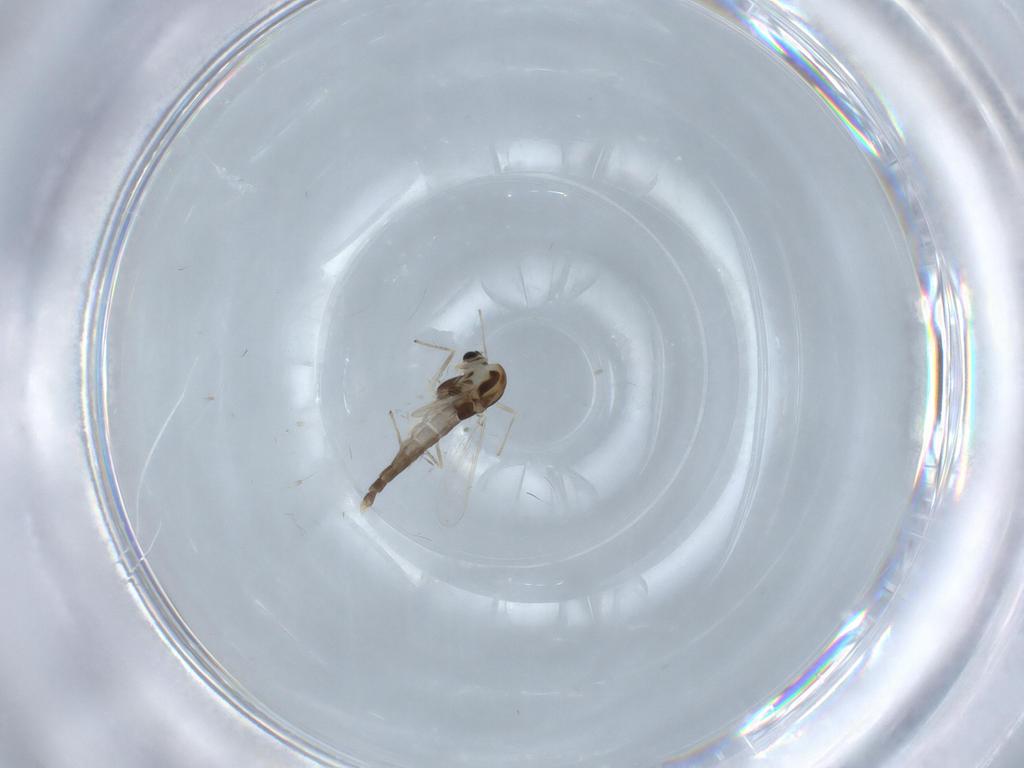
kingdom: Animalia
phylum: Arthropoda
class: Insecta
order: Diptera
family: Chironomidae
